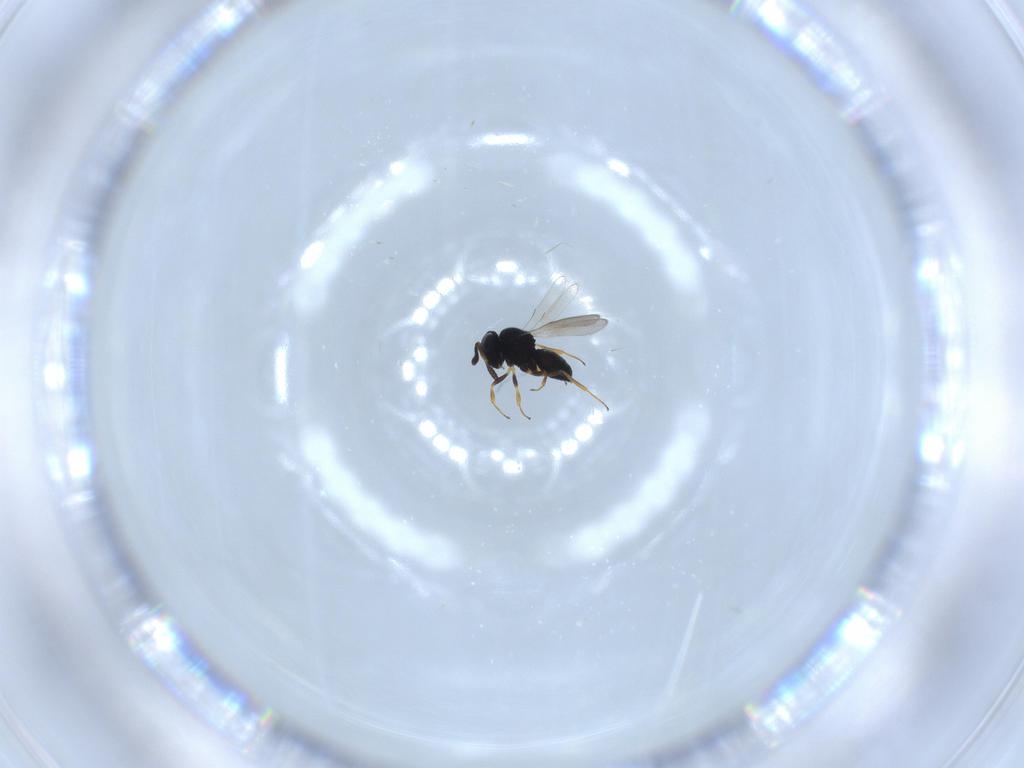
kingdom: Animalia
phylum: Arthropoda
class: Insecta
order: Hymenoptera
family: Scelionidae
